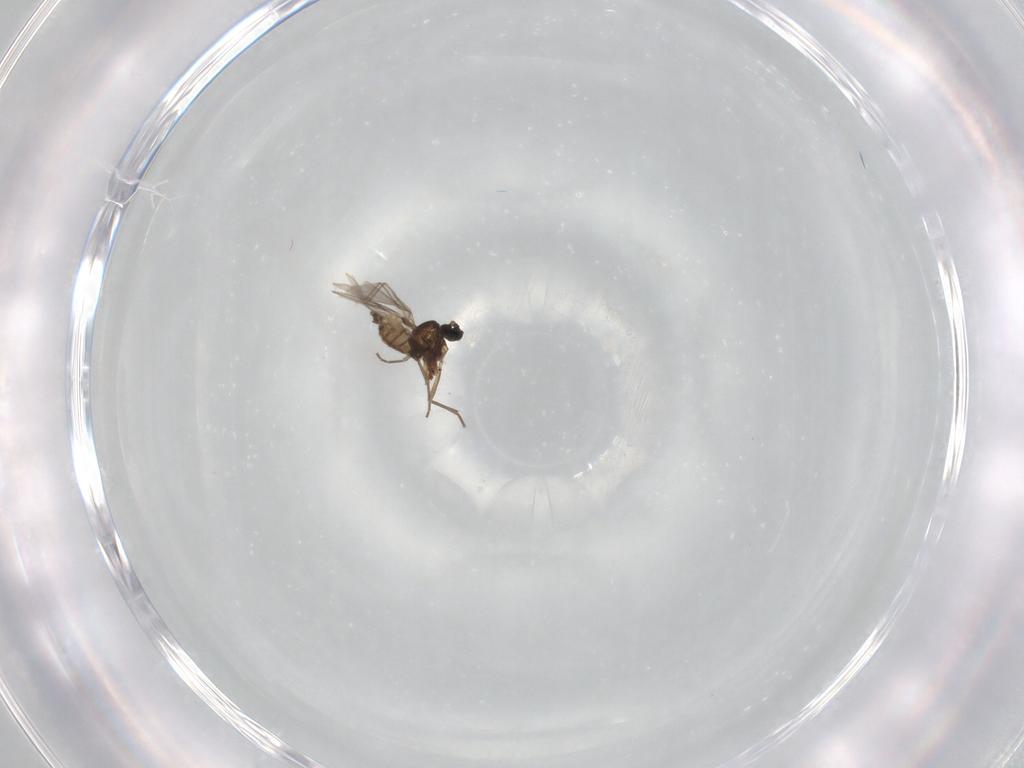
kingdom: Animalia
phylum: Arthropoda
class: Insecta
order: Diptera
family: Sciaridae
